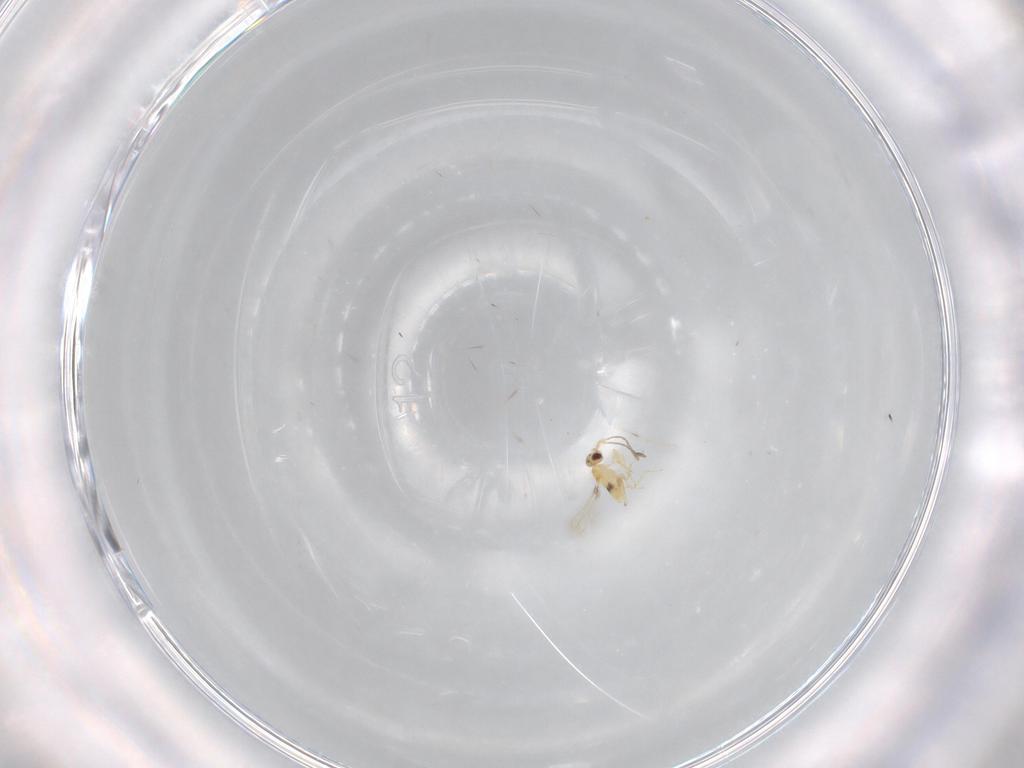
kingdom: Animalia
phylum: Arthropoda
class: Insecta
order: Hymenoptera
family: Mymaridae
